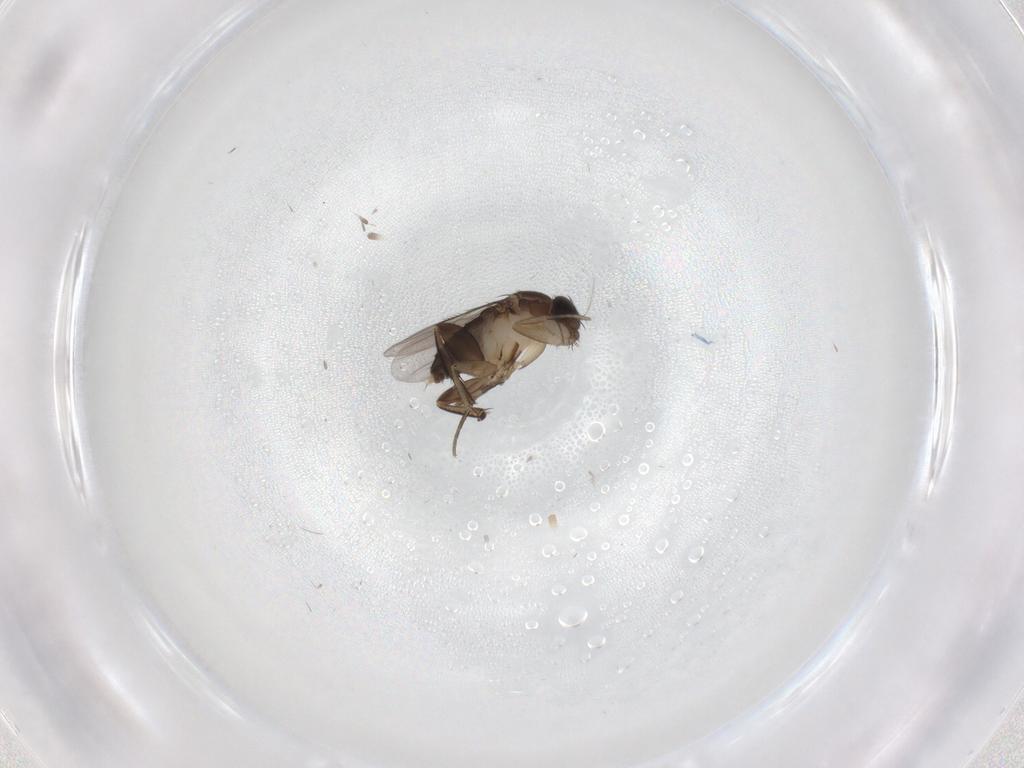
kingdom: Animalia
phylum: Arthropoda
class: Insecta
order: Diptera
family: Phoridae
